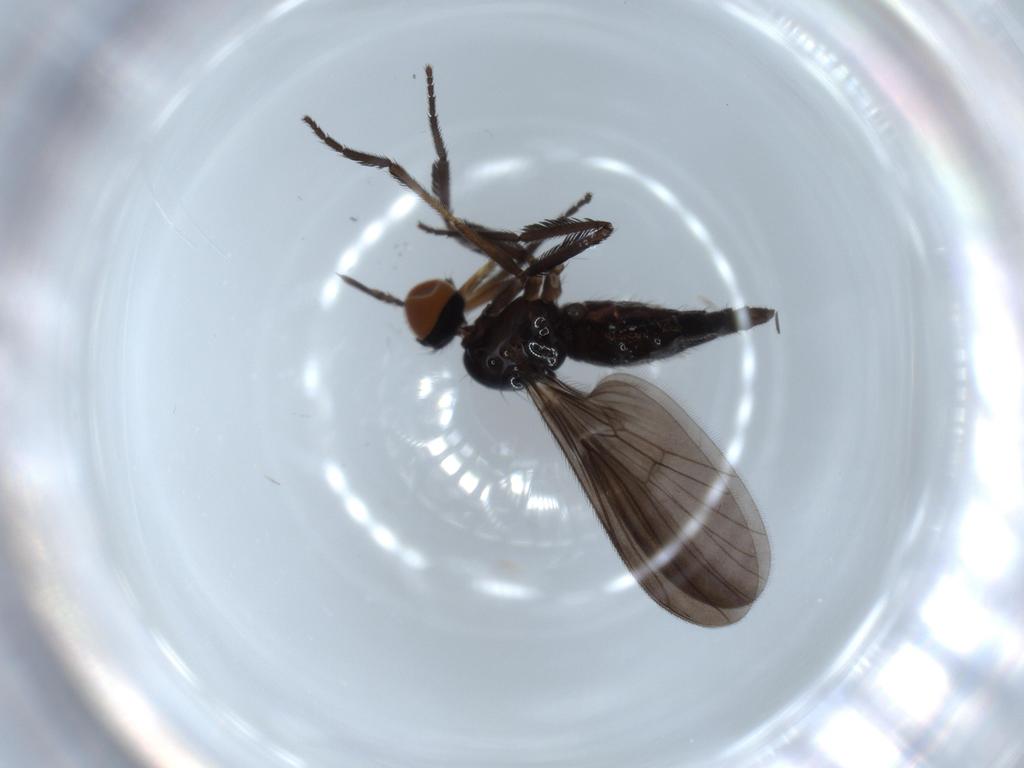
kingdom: Animalia
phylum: Arthropoda
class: Insecta
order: Diptera
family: Empididae
